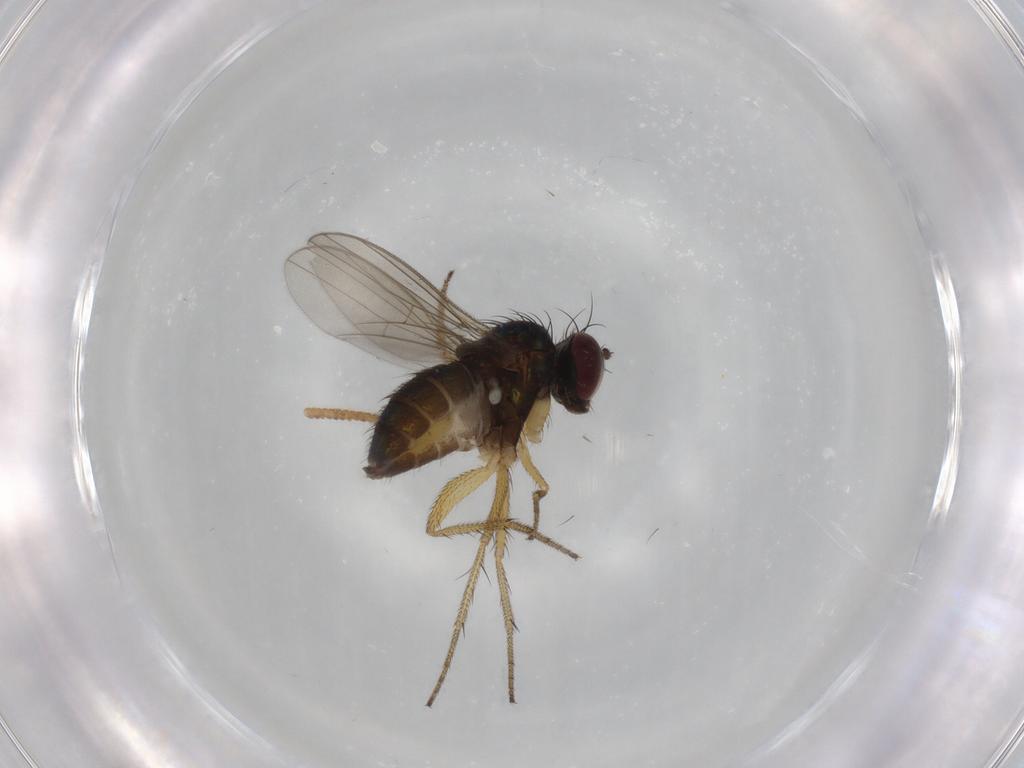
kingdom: Animalia
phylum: Arthropoda
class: Insecta
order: Diptera
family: Dolichopodidae
